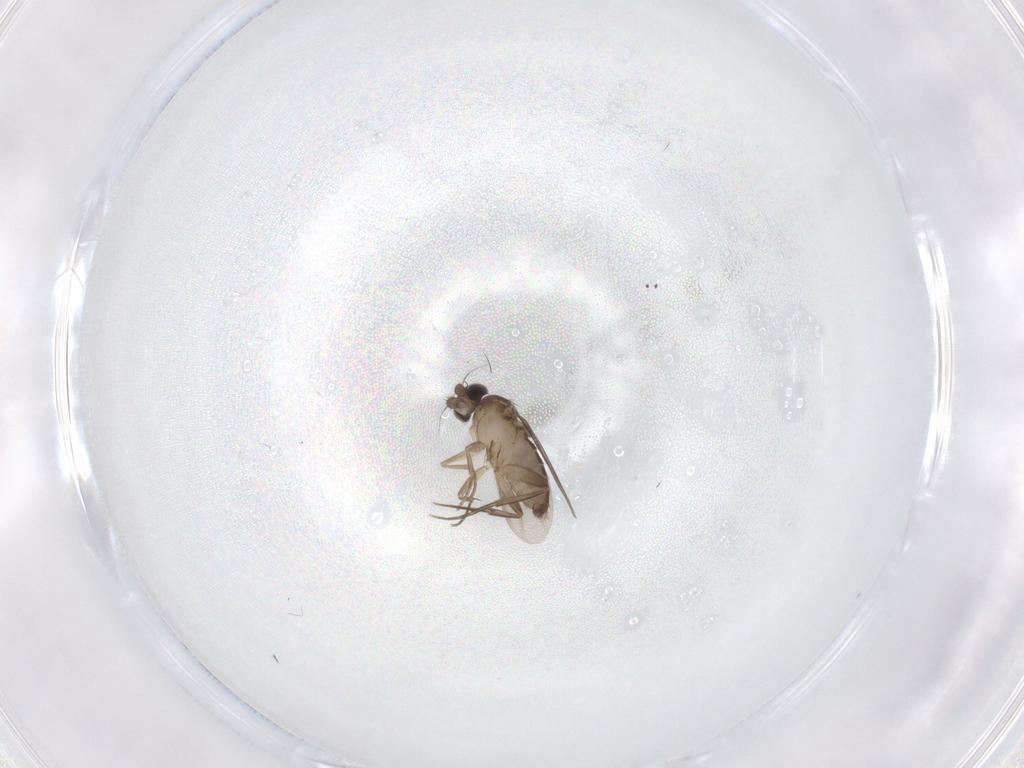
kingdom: Animalia
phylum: Arthropoda
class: Insecta
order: Diptera
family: Phoridae
